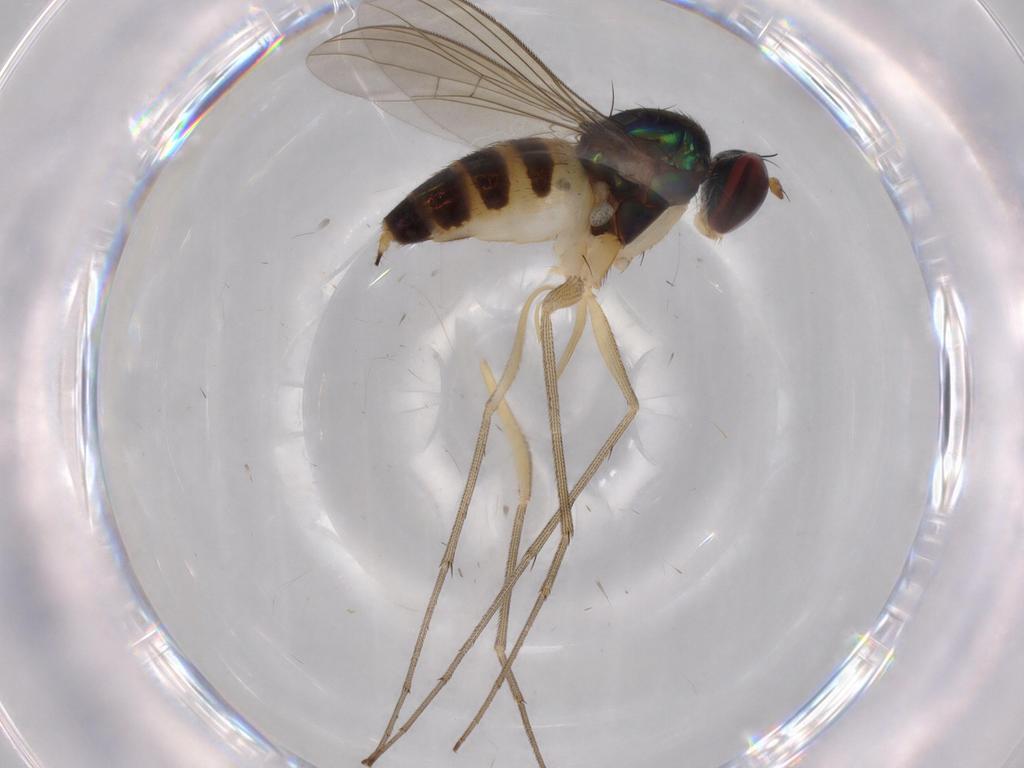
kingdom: Animalia
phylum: Arthropoda
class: Insecta
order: Diptera
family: Dolichopodidae
